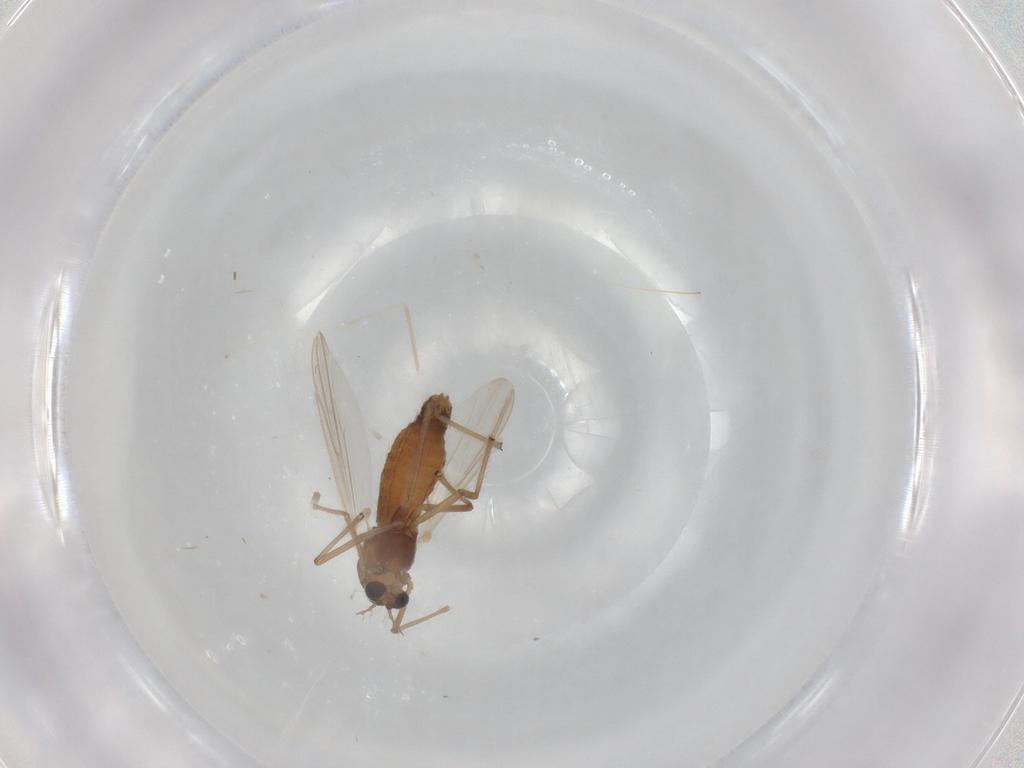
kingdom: Animalia
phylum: Arthropoda
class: Insecta
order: Diptera
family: Chironomidae
